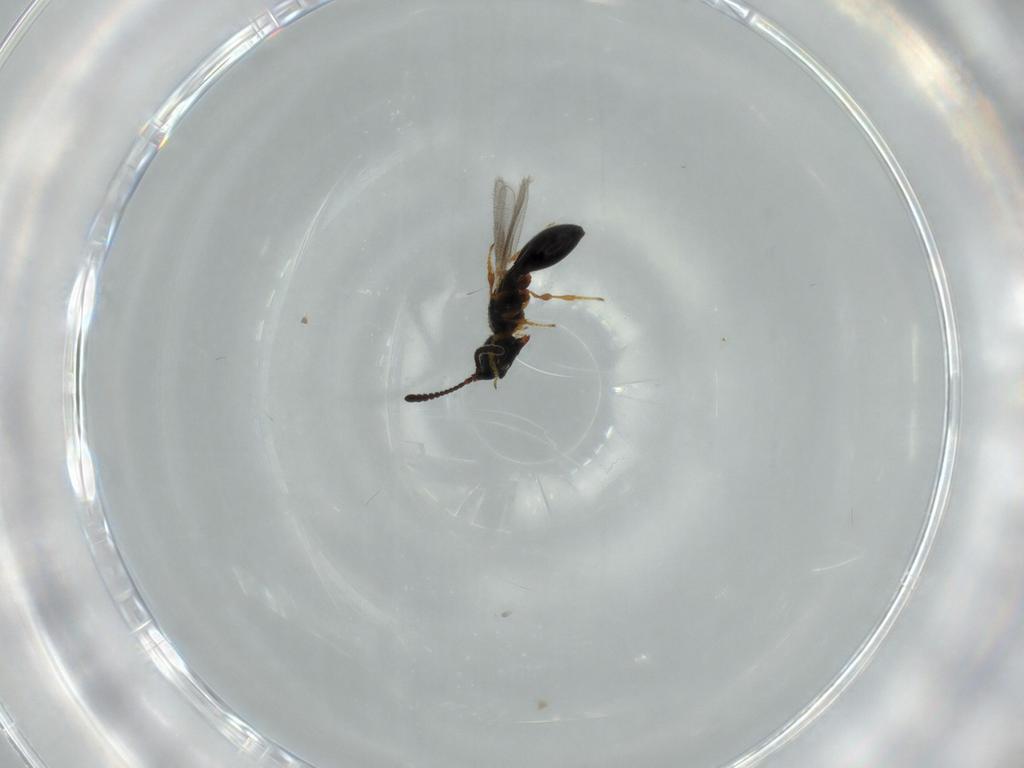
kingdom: Animalia
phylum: Arthropoda
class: Insecta
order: Hymenoptera
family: Diapriidae
